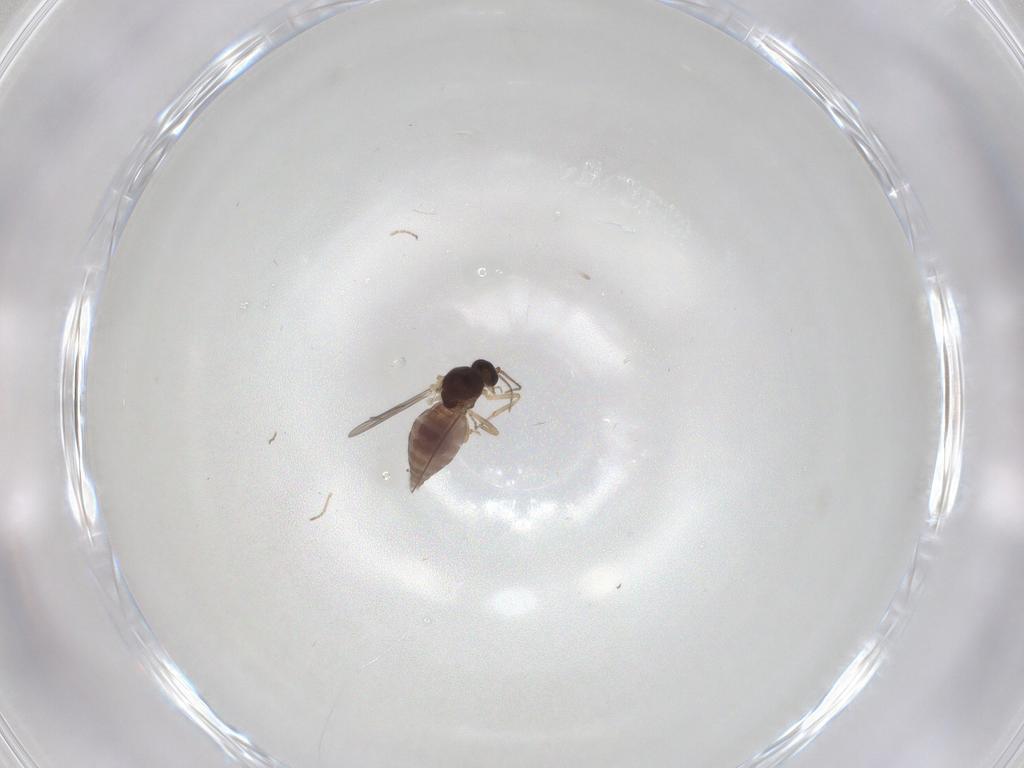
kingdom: Animalia
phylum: Arthropoda
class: Insecta
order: Diptera
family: Ceratopogonidae
